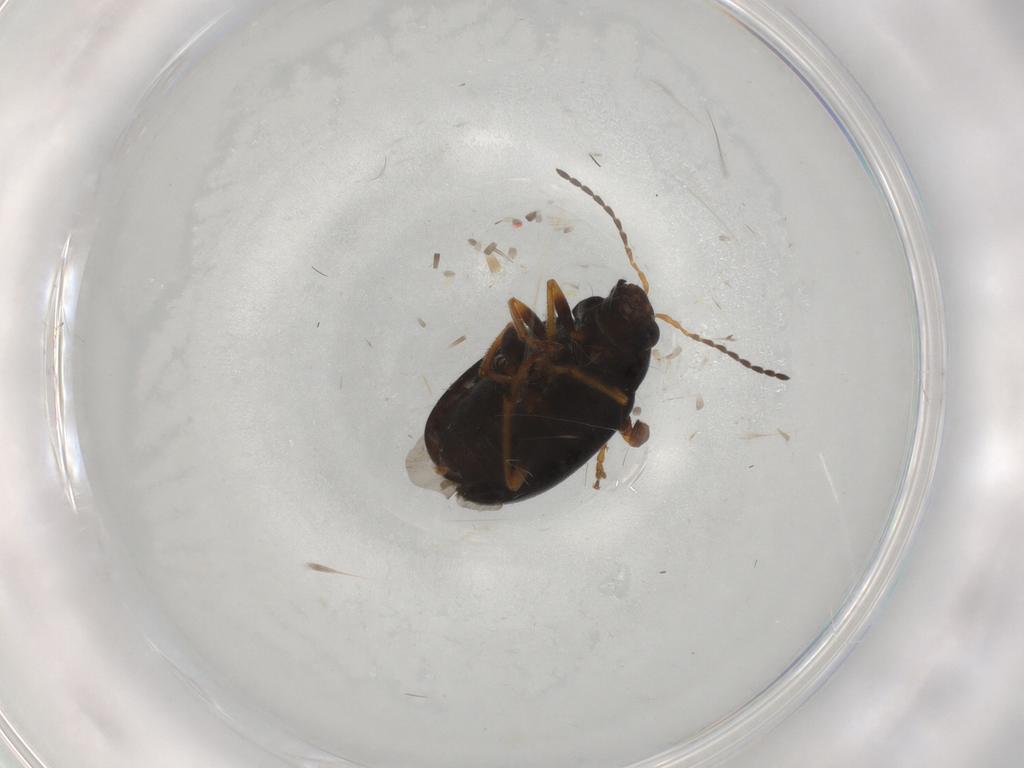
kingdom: Animalia
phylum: Arthropoda
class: Insecta
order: Coleoptera
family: Chrysomelidae
